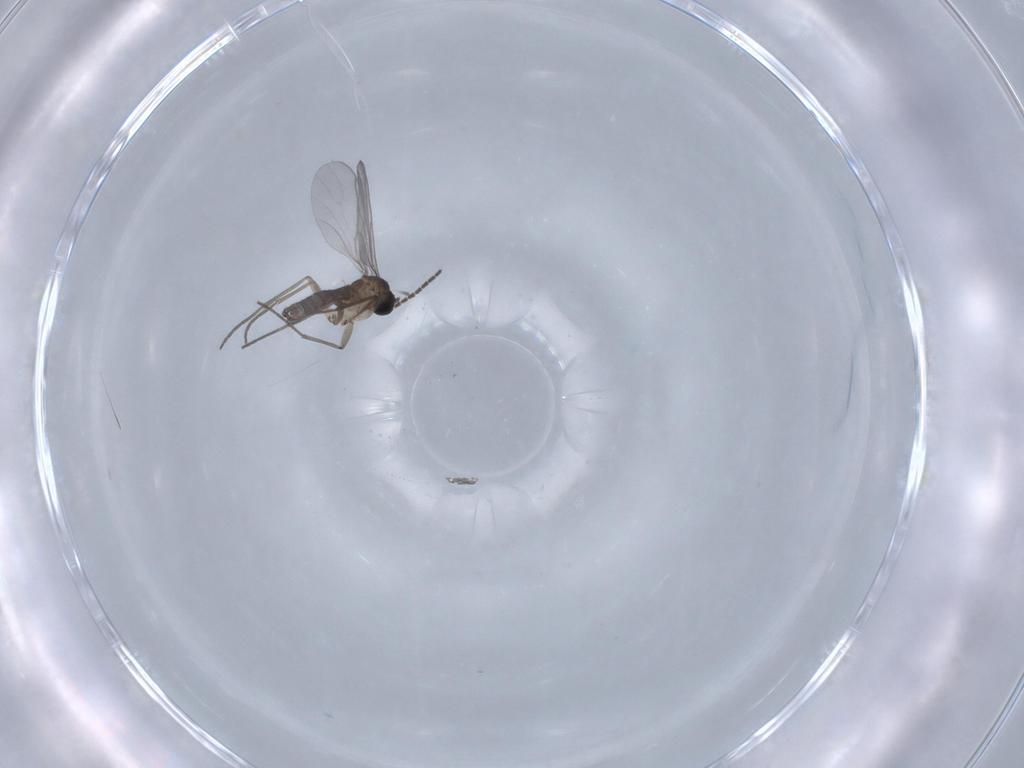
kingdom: Animalia
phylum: Arthropoda
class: Insecta
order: Diptera
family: Sciaridae
